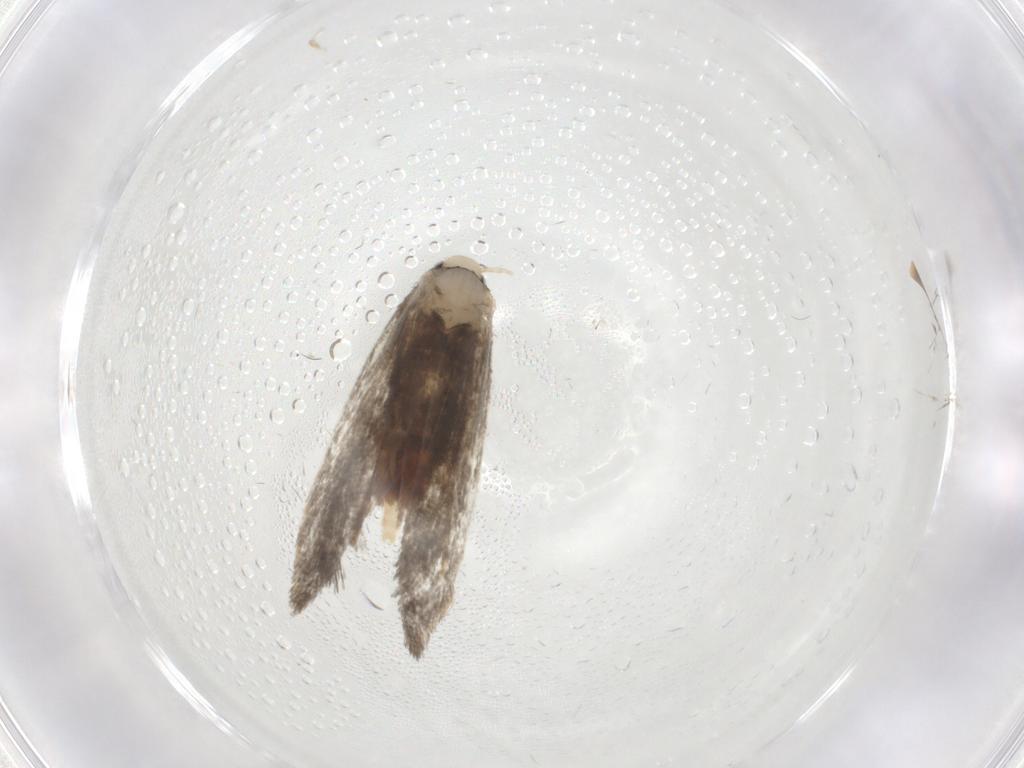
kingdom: Animalia
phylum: Arthropoda
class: Insecta
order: Lepidoptera
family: Psychidae
